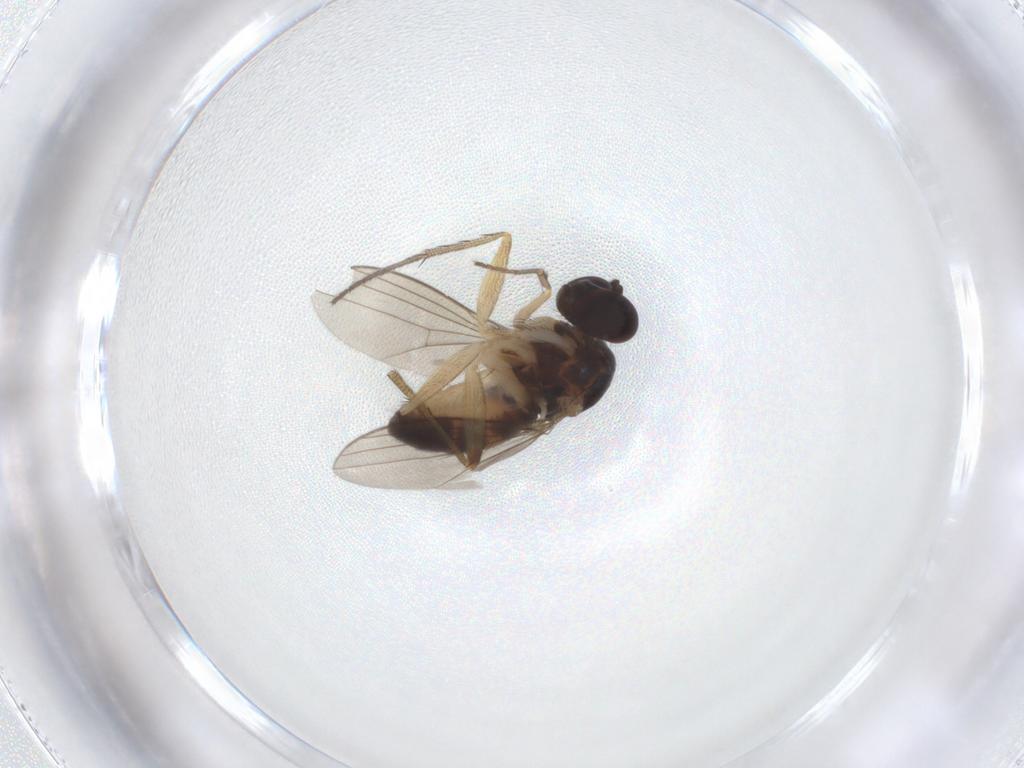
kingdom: Animalia
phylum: Arthropoda
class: Insecta
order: Diptera
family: Dolichopodidae
